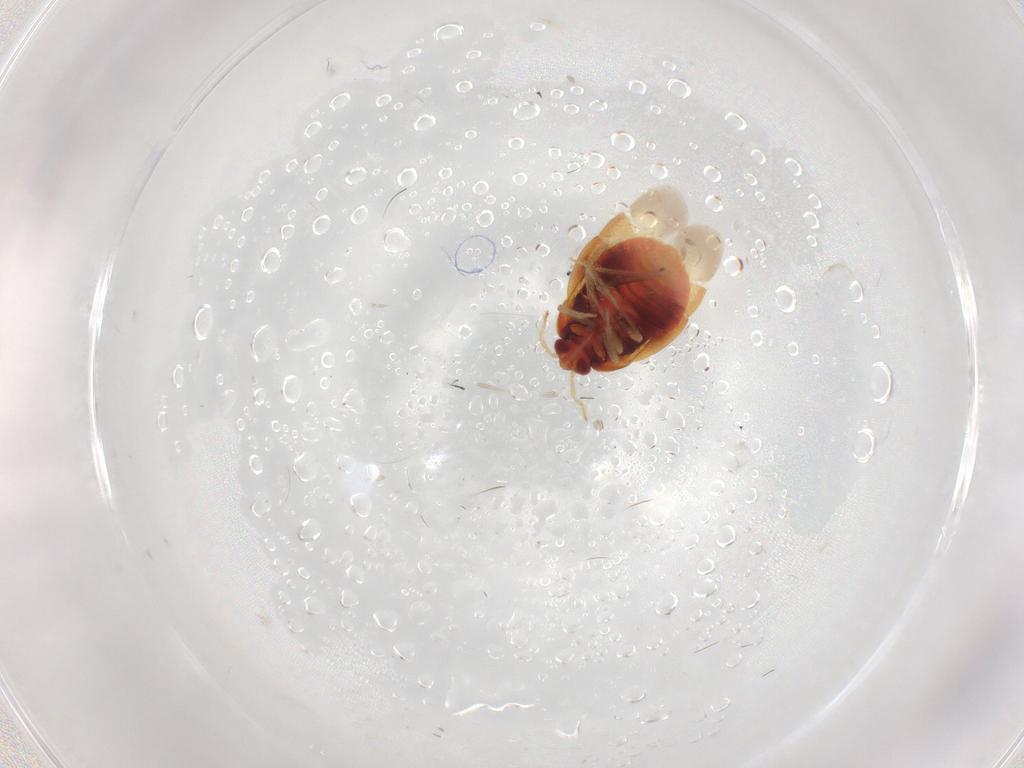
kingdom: Animalia
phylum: Arthropoda
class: Insecta
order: Hemiptera
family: Anthocoridae
